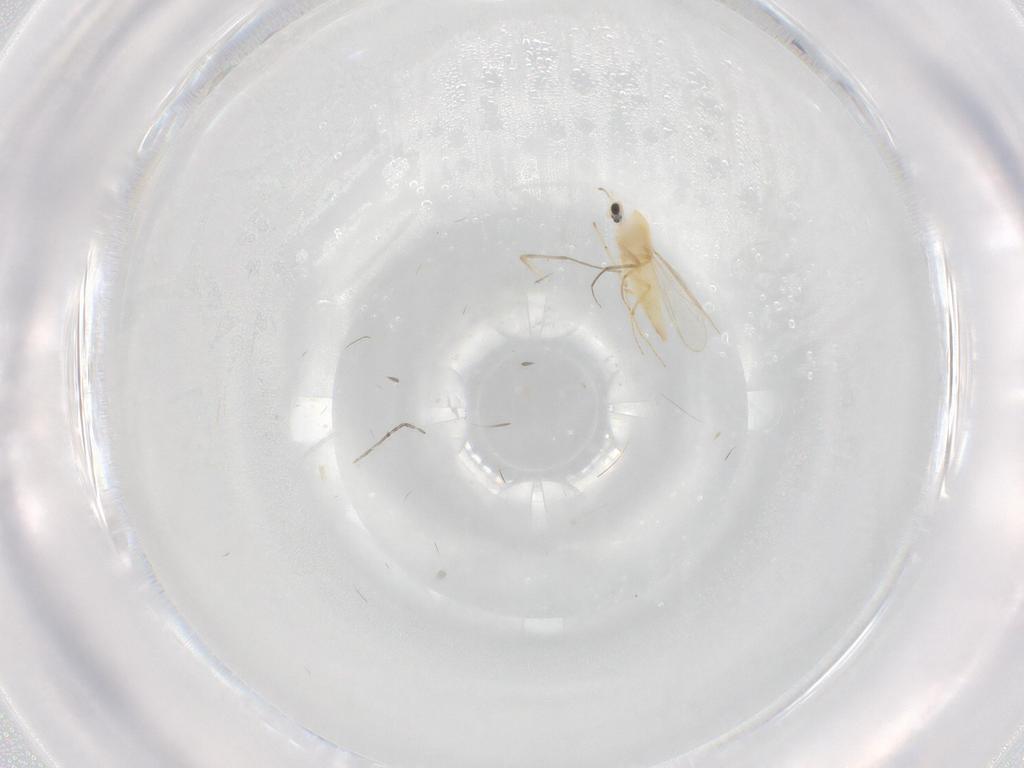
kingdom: Animalia
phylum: Arthropoda
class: Insecta
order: Diptera
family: Chironomidae
